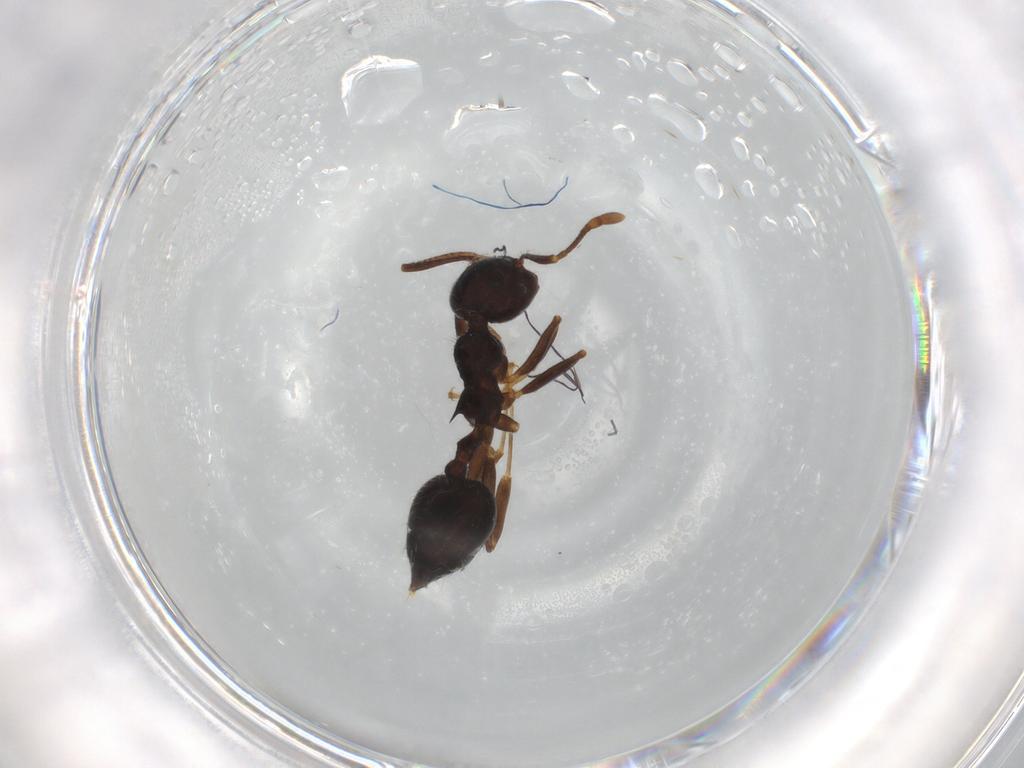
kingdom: Animalia
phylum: Arthropoda
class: Insecta
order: Hymenoptera
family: Formicidae
